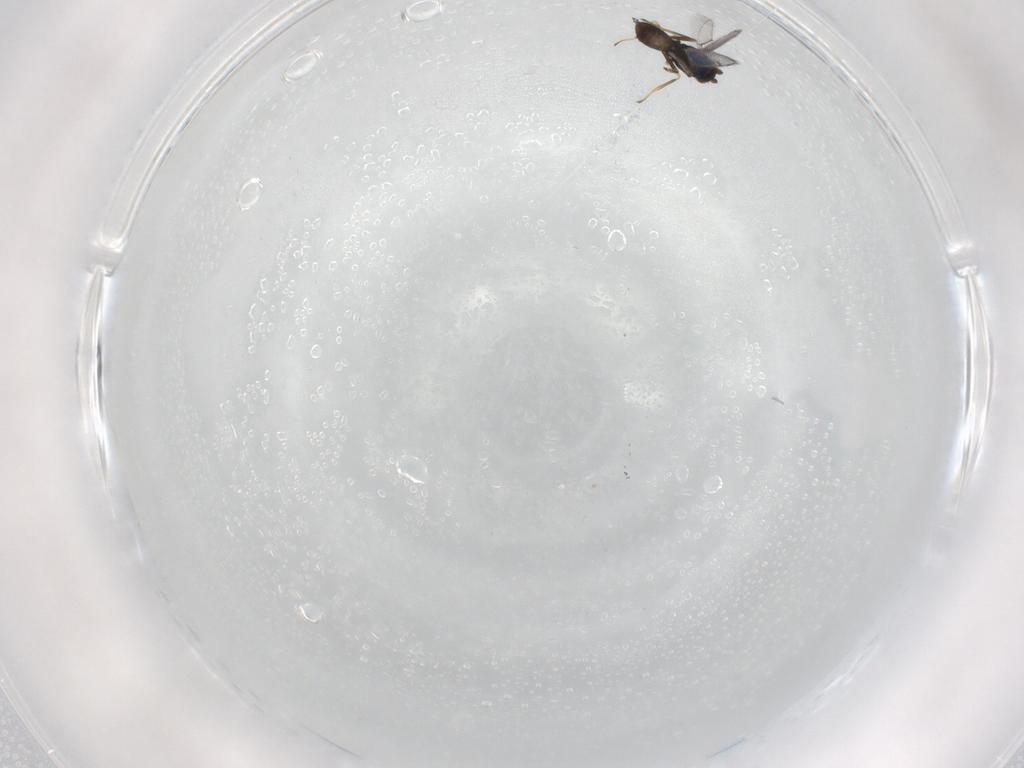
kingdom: Animalia
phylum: Arthropoda
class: Insecta
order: Hymenoptera
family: Eulophidae
